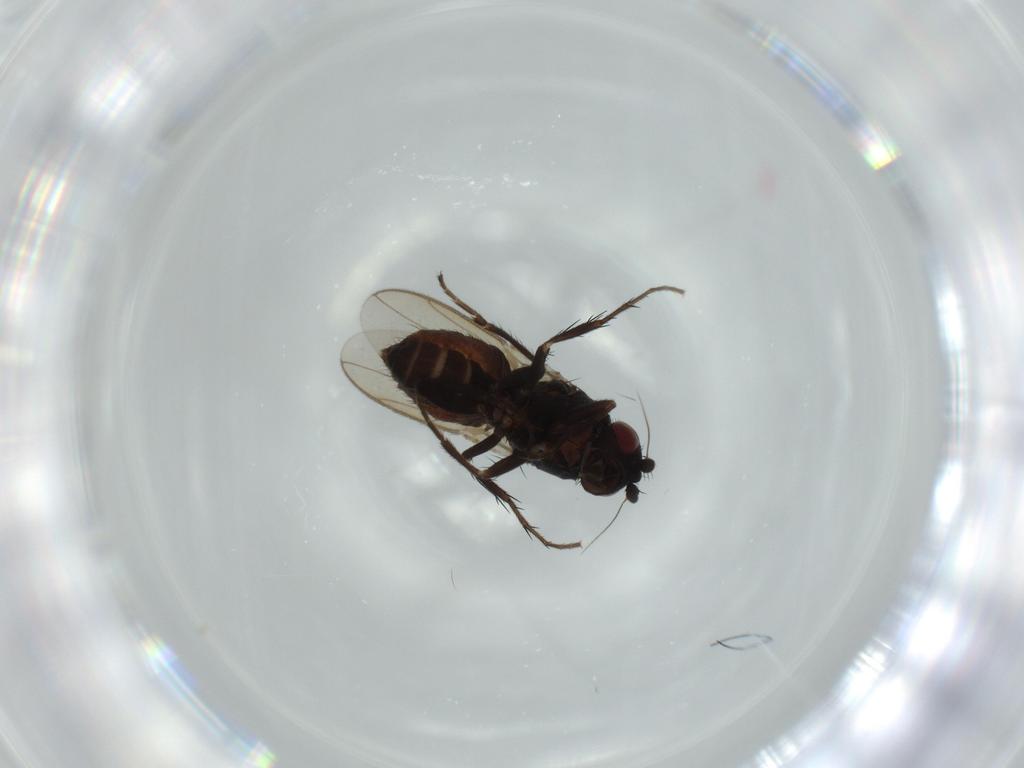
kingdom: Animalia
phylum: Arthropoda
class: Insecta
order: Diptera
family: Sphaeroceridae
